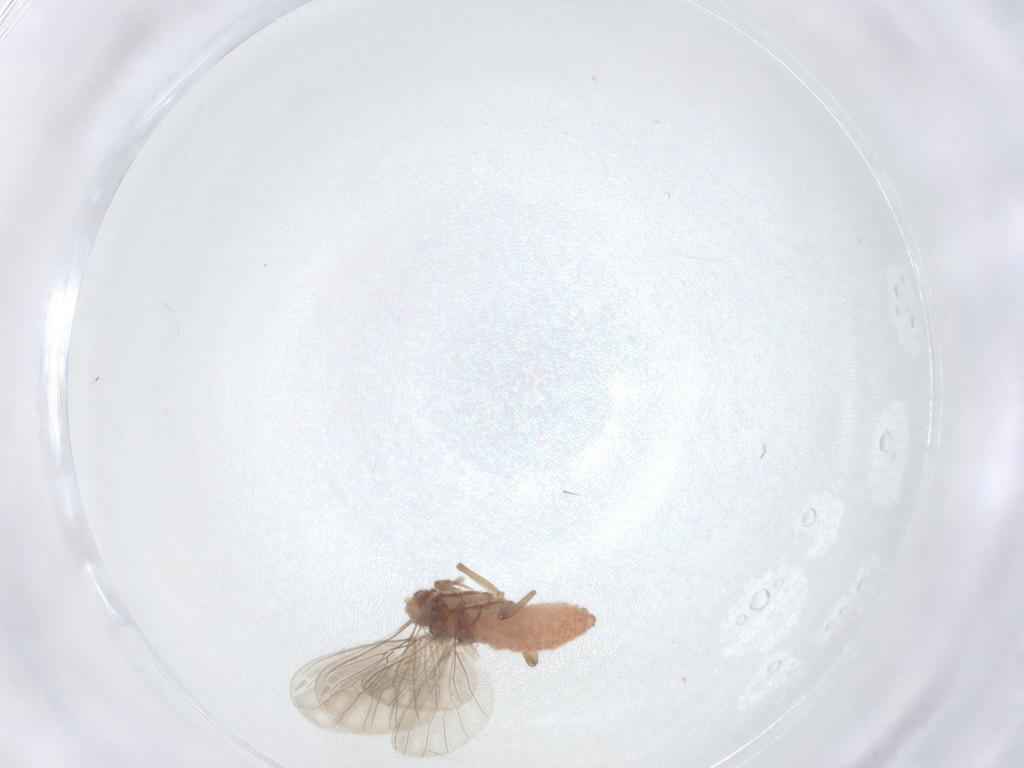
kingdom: Animalia
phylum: Arthropoda
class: Insecta
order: Neuroptera
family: Coniopterygidae
